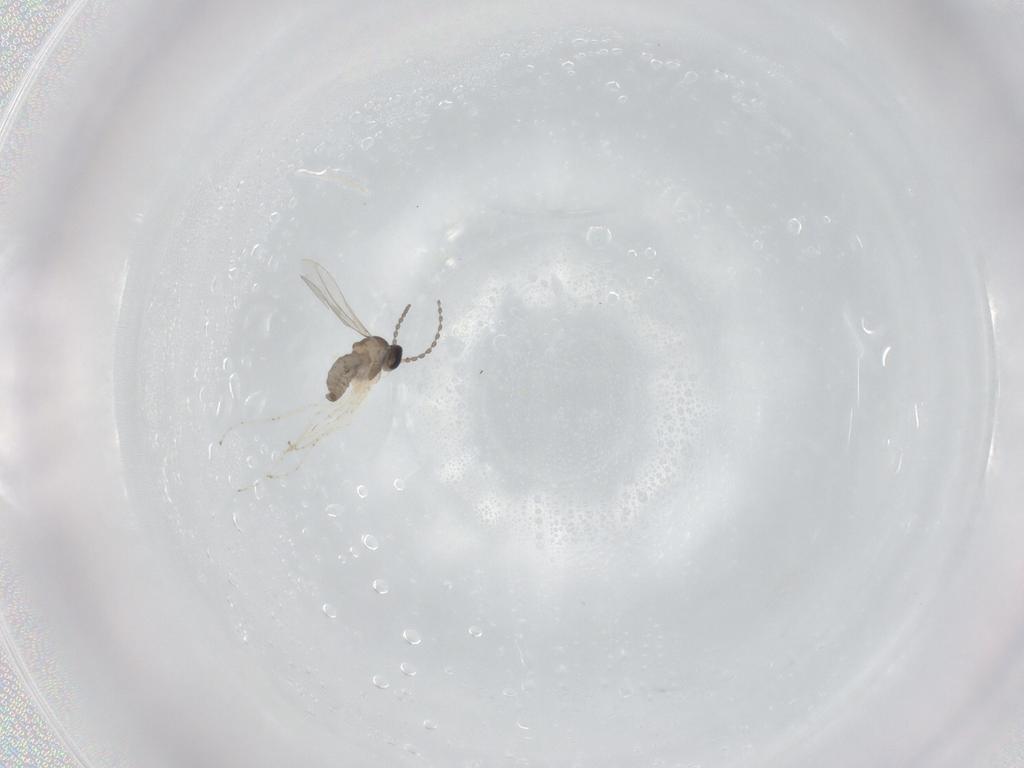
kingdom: Animalia
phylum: Arthropoda
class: Insecta
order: Diptera
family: Cecidomyiidae
